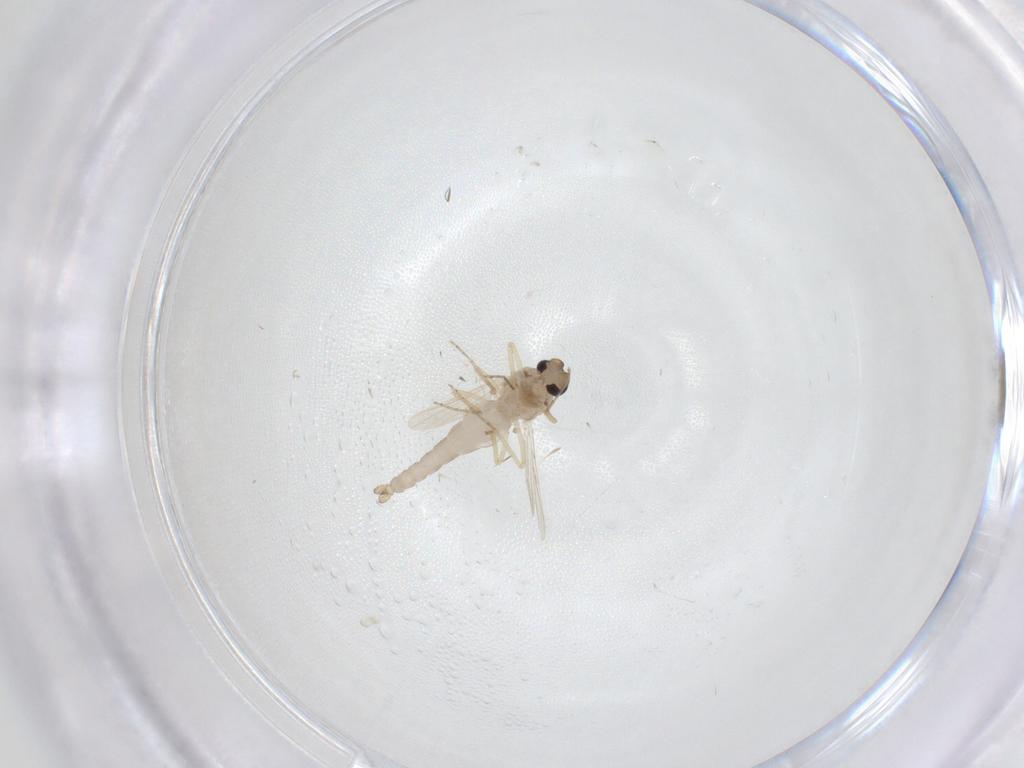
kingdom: Animalia
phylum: Arthropoda
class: Insecta
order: Diptera
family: Ceratopogonidae
